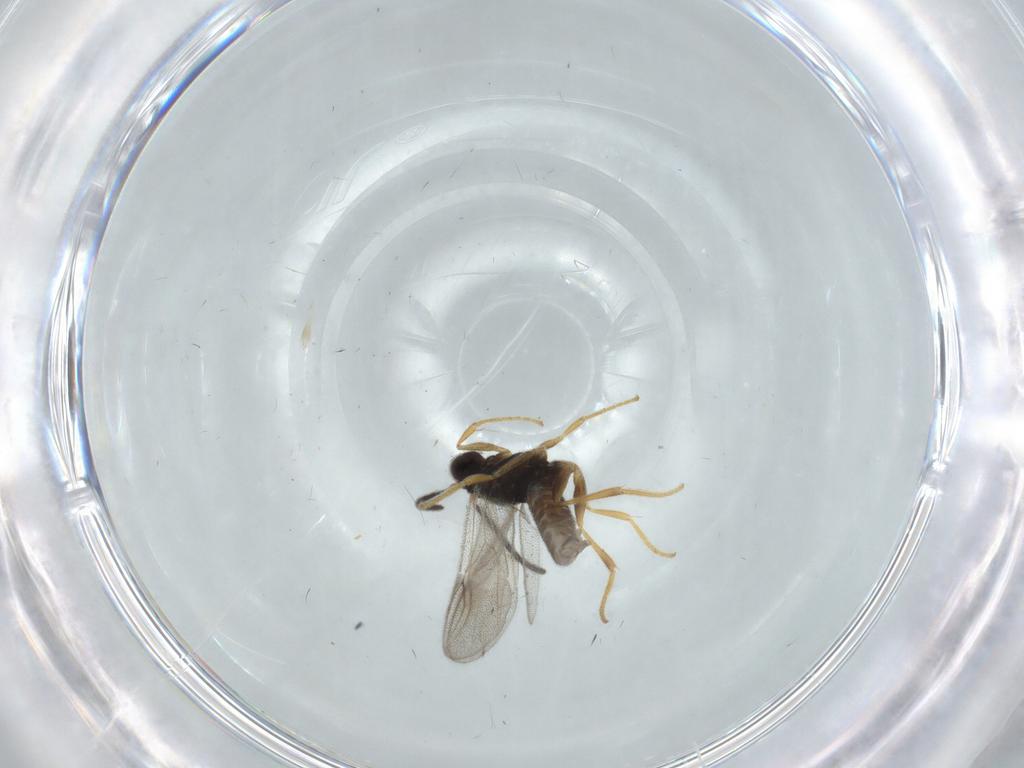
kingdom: Animalia
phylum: Arthropoda
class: Insecta
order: Hymenoptera
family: Dryinidae
